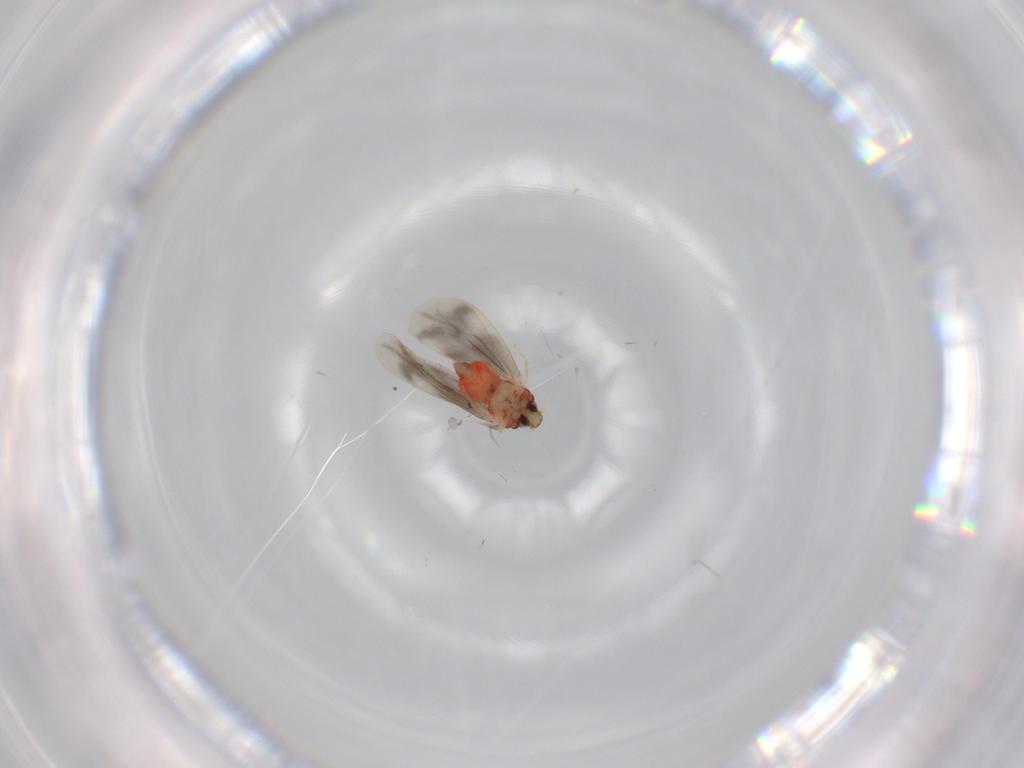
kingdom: Animalia
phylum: Arthropoda
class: Insecta
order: Hemiptera
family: Aleyrodidae
